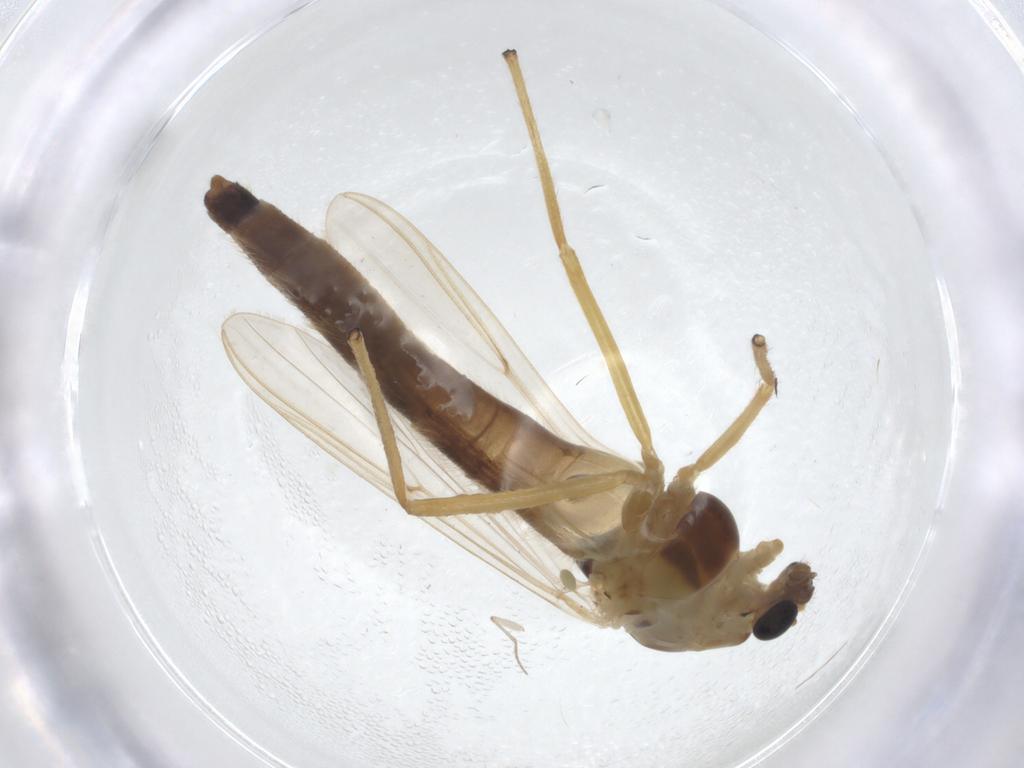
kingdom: Animalia
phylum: Arthropoda
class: Insecta
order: Diptera
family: Chironomidae
